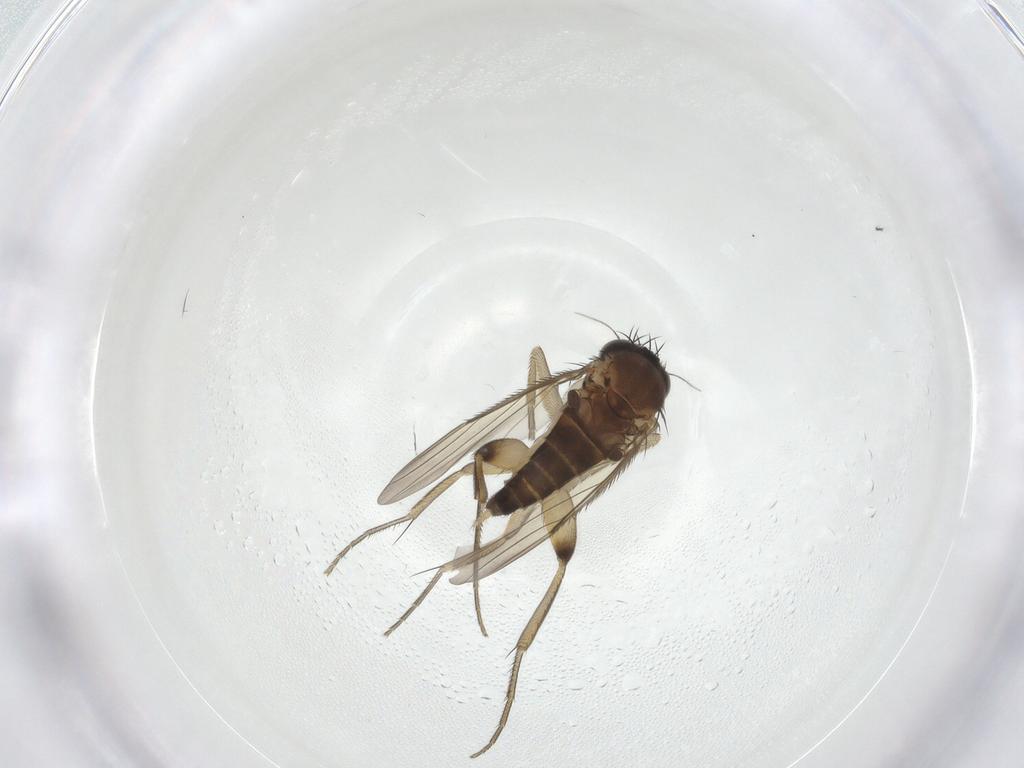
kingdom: Animalia
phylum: Arthropoda
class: Insecta
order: Diptera
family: Phoridae
